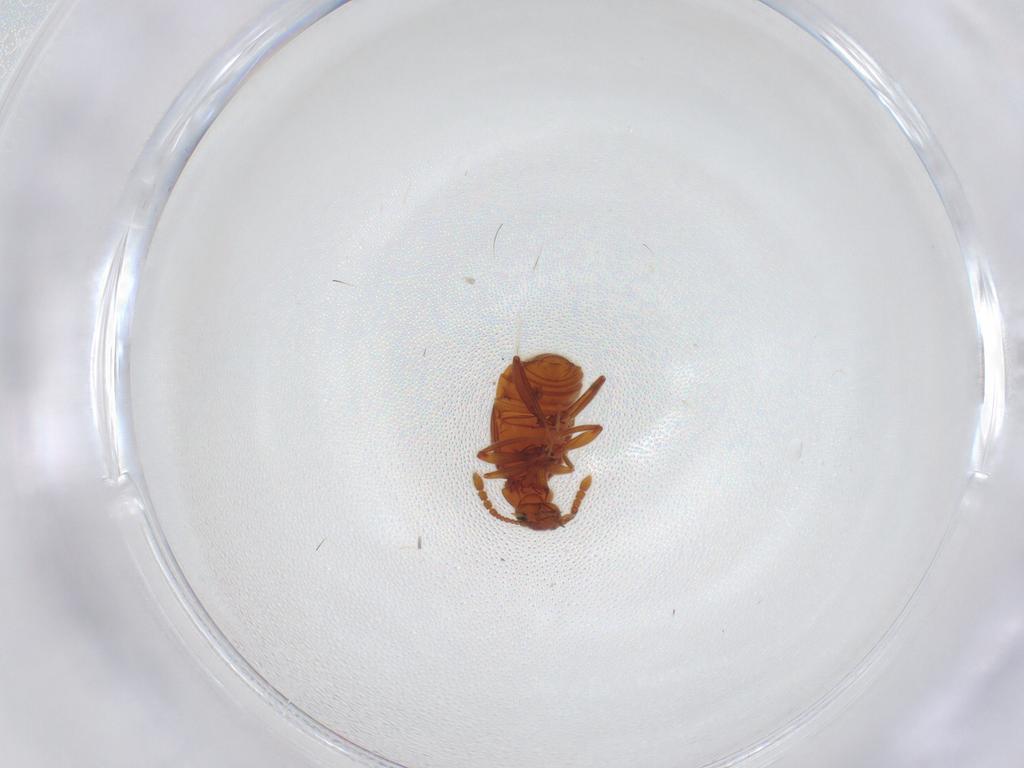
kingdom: Animalia
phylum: Arthropoda
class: Insecta
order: Coleoptera
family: Staphylinidae
